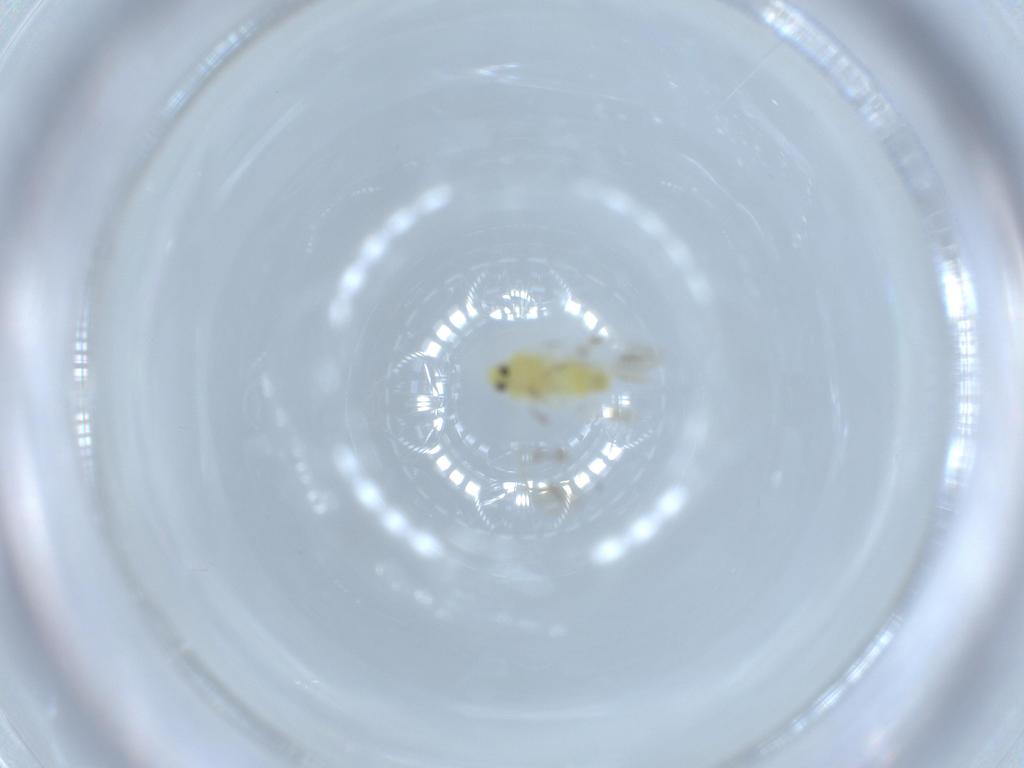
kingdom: Animalia
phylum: Arthropoda
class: Insecta
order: Hemiptera
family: Aleyrodidae
